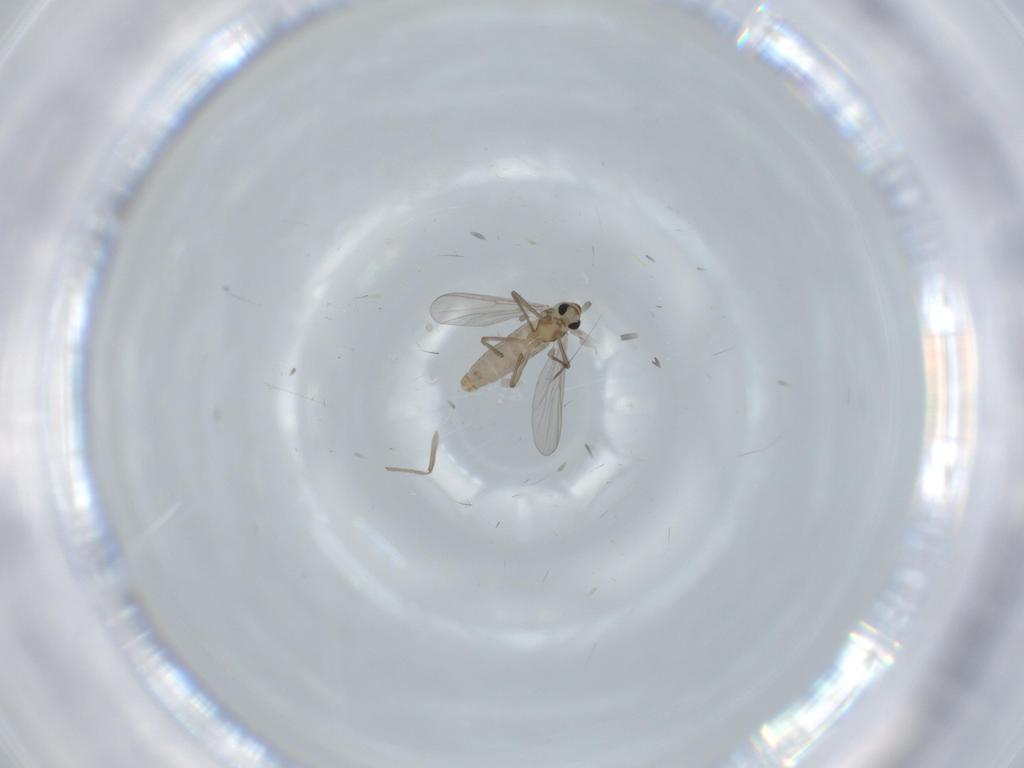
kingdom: Animalia
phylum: Arthropoda
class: Insecta
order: Diptera
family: Chironomidae
